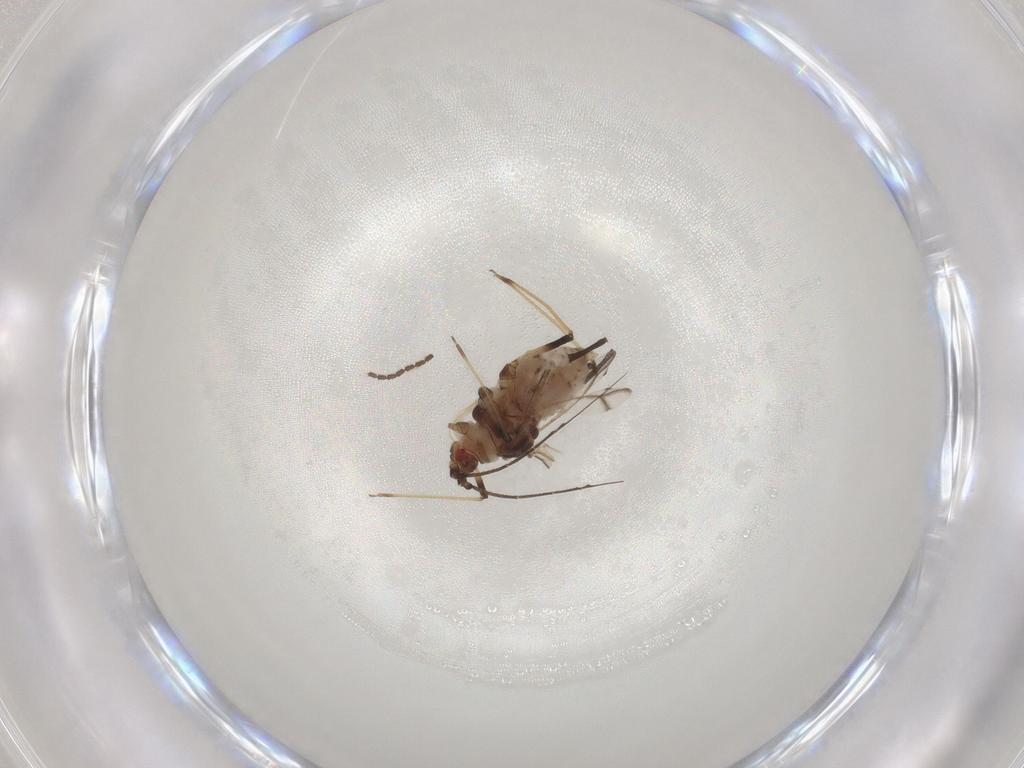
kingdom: Animalia
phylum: Arthropoda
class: Insecta
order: Hemiptera
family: Aphididae
